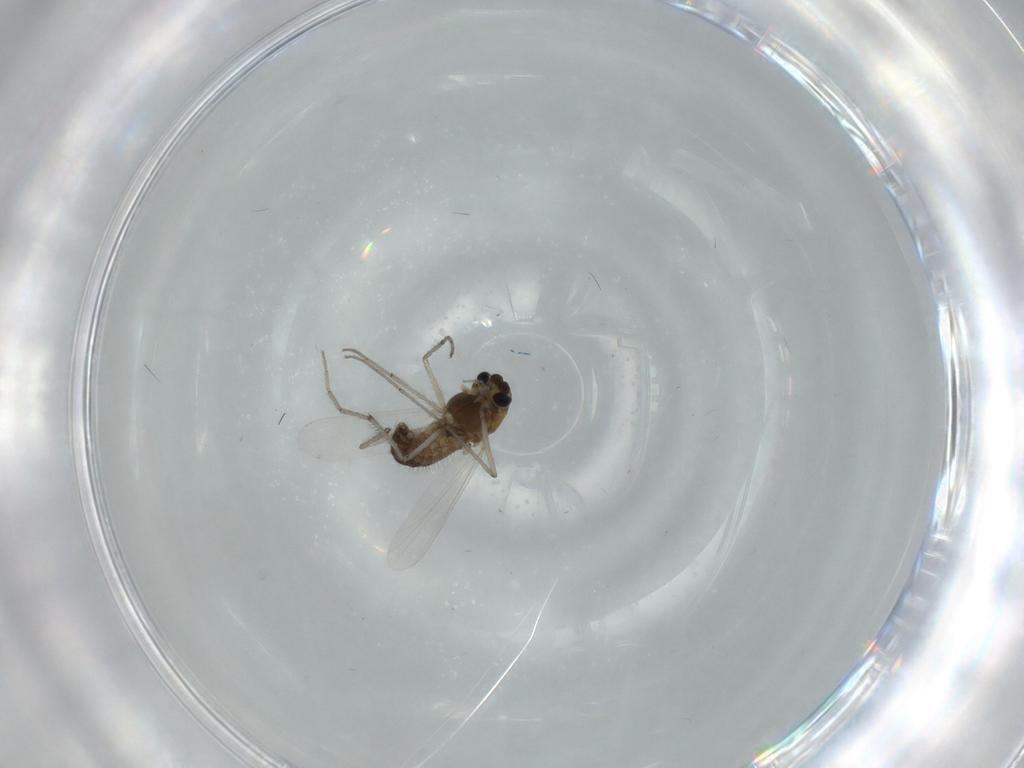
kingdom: Animalia
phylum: Arthropoda
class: Insecta
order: Diptera
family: Chironomidae
